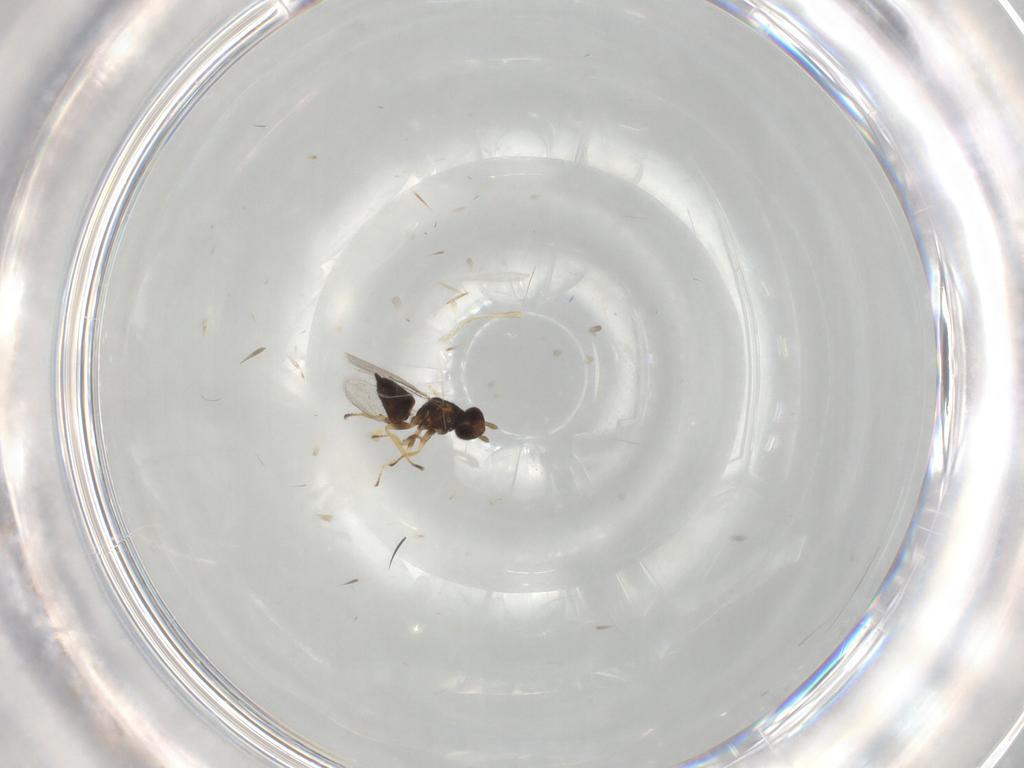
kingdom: Animalia
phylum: Arthropoda
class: Insecta
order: Hymenoptera
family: Eulophidae
